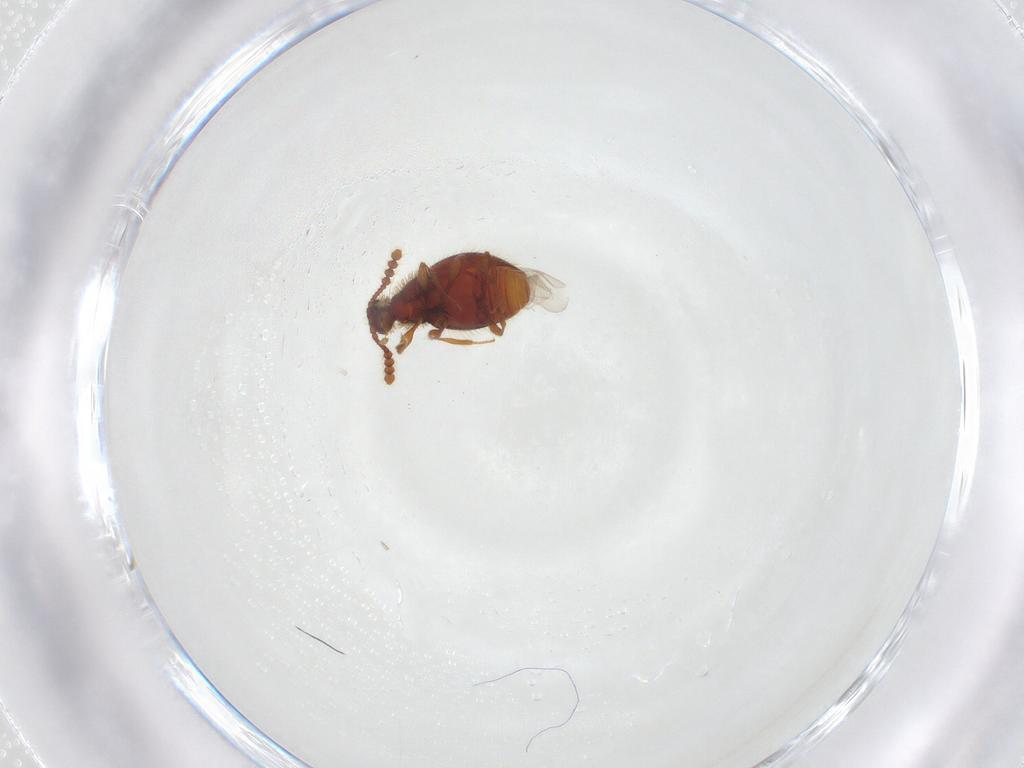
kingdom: Animalia
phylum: Arthropoda
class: Insecta
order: Coleoptera
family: Staphylinidae
